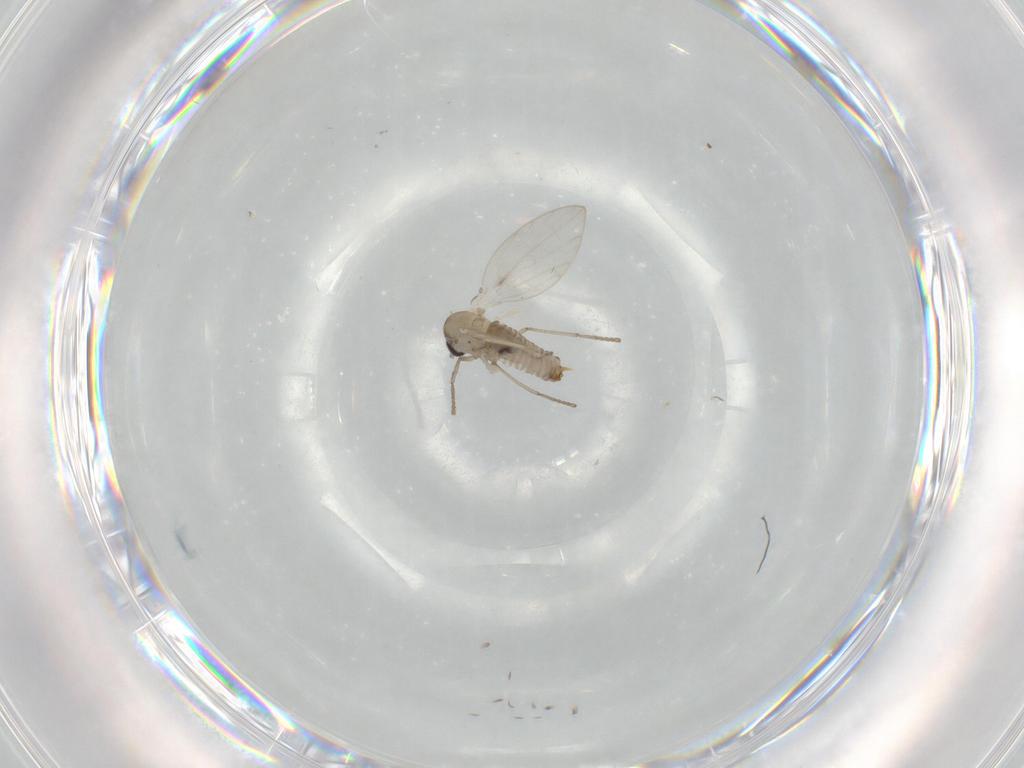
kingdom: Animalia
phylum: Arthropoda
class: Insecta
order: Diptera
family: Psychodidae
